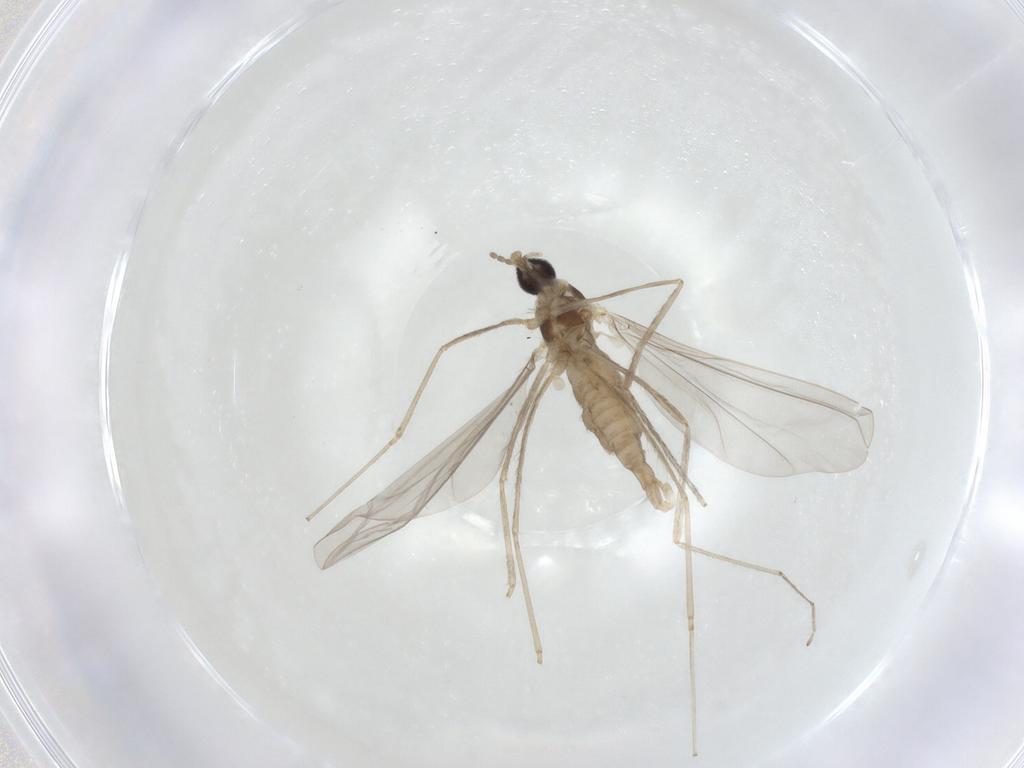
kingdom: Animalia
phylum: Arthropoda
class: Insecta
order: Diptera
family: Cecidomyiidae
